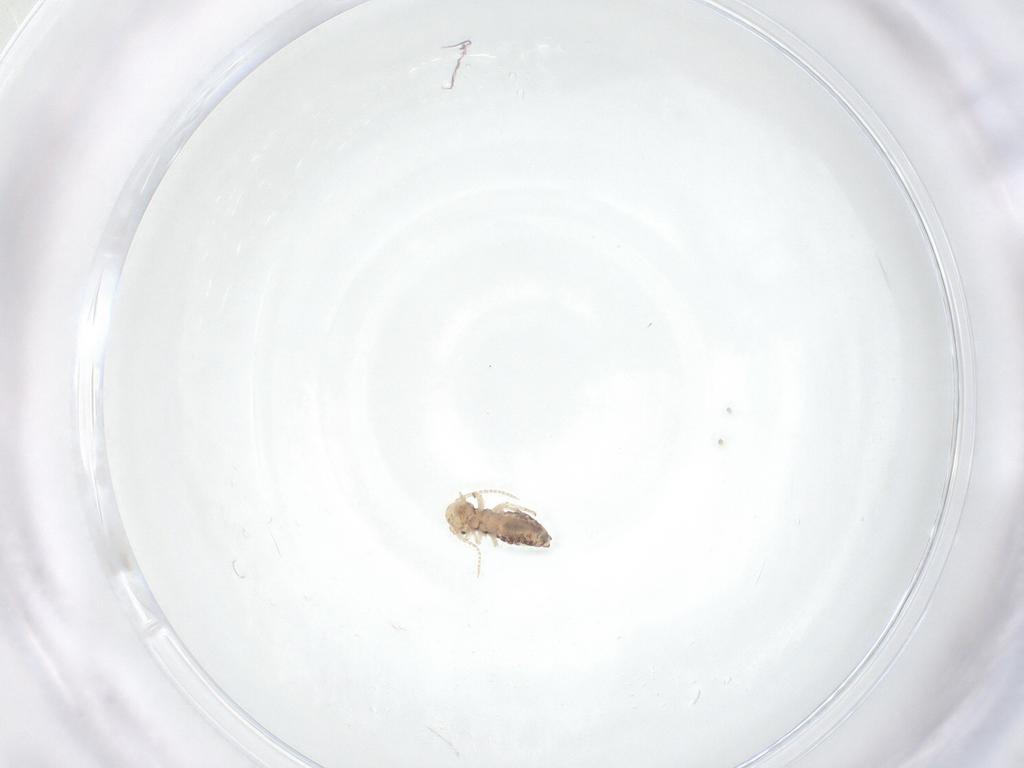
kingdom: Animalia
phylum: Arthropoda
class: Insecta
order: Psocodea
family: Pseudocaeciliidae
